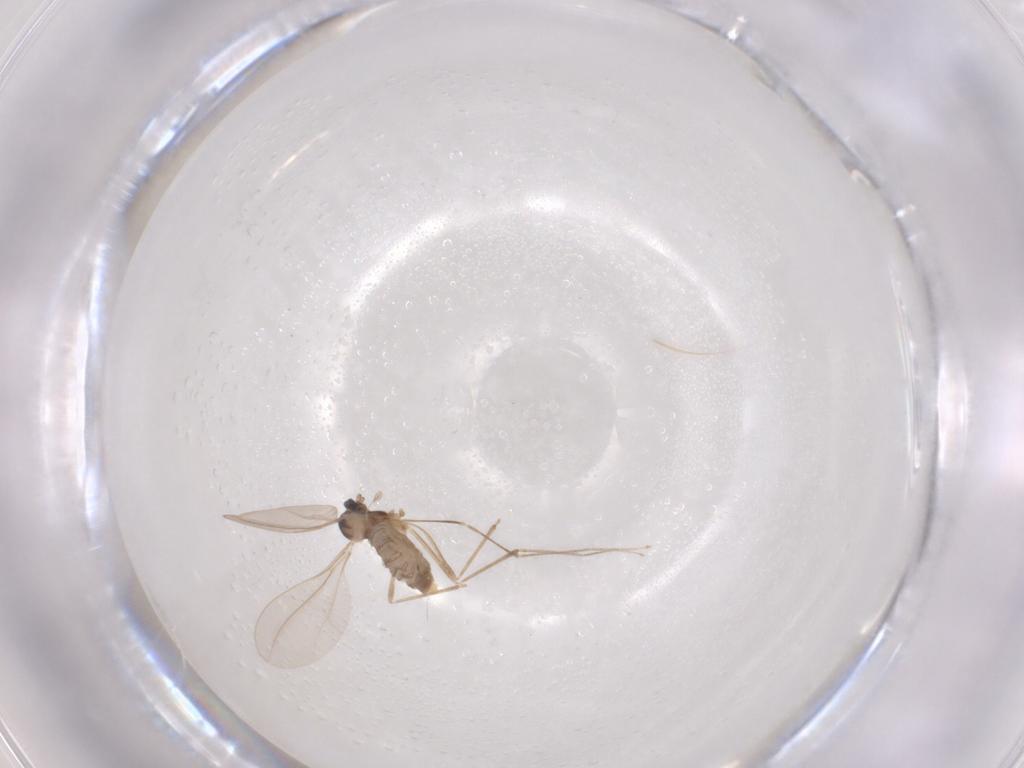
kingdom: Animalia
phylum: Arthropoda
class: Insecta
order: Diptera
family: Cecidomyiidae
